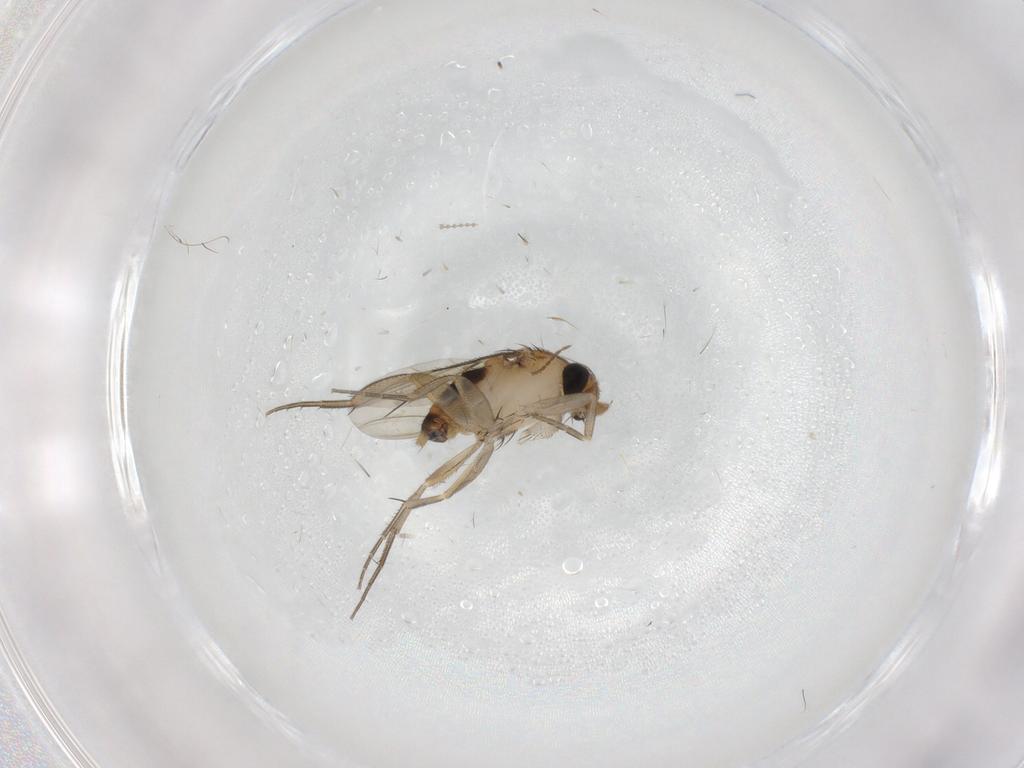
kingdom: Animalia
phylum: Arthropoda
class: Insecta
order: Diptera
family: Phoridae
